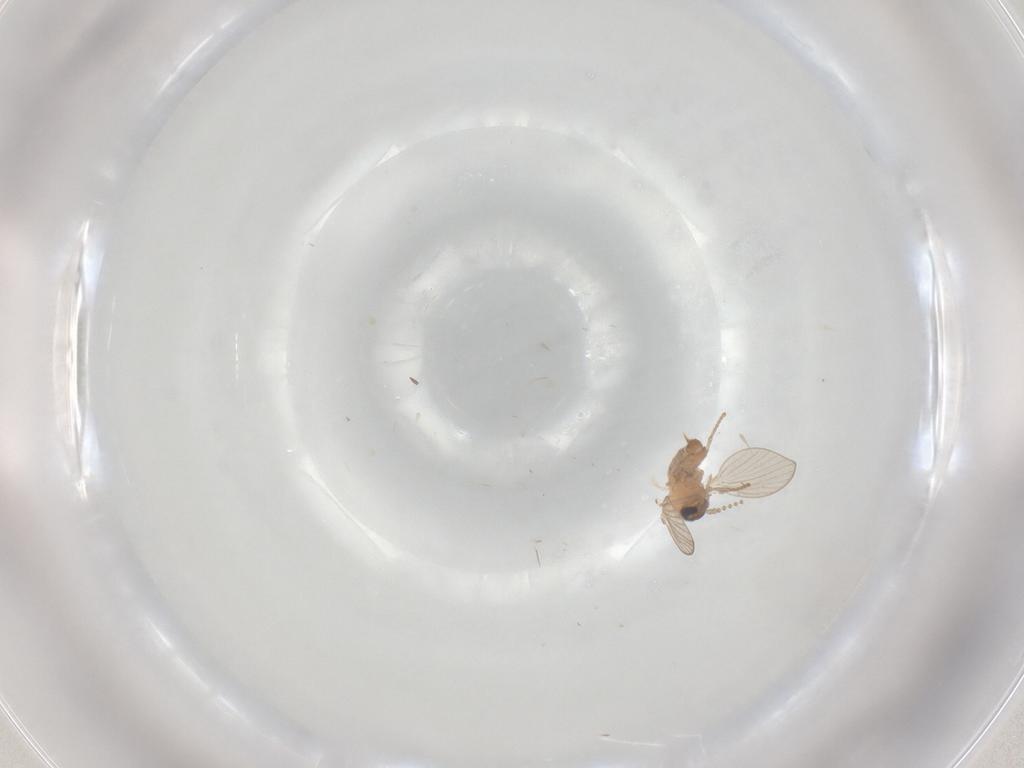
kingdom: Animalia
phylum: Arthropoda
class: Insecta
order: Diptera
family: Psychodidae
